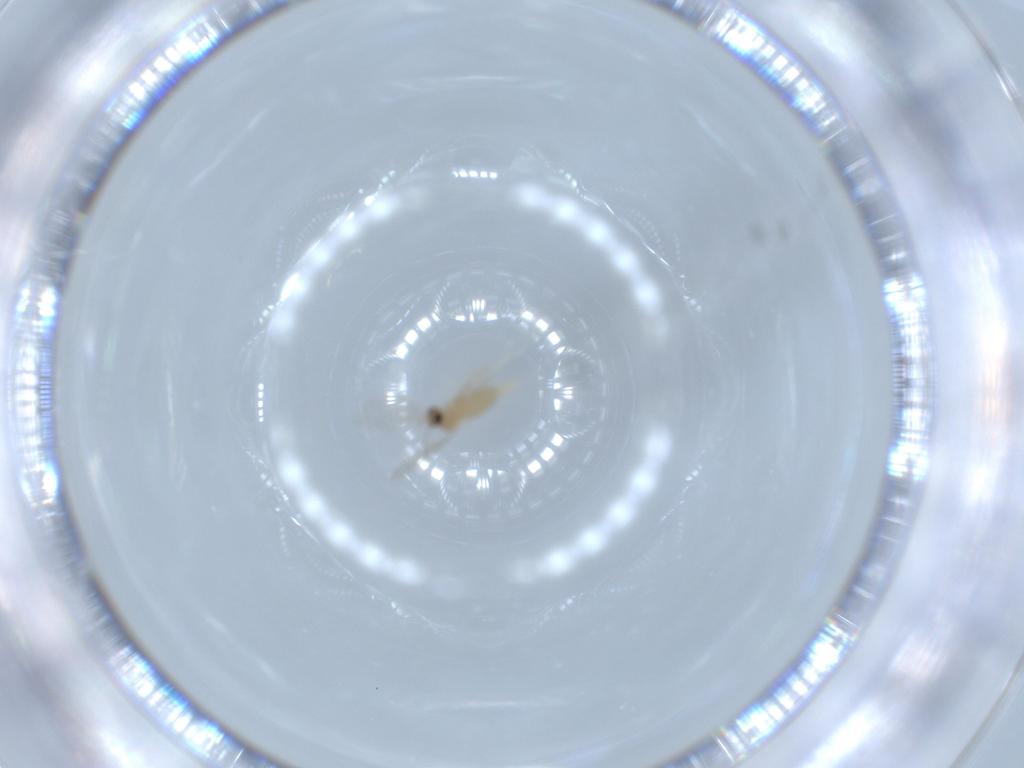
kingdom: Animalia
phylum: Arthropoda
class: Insecta
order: Diptera
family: Cecidomyiidae
